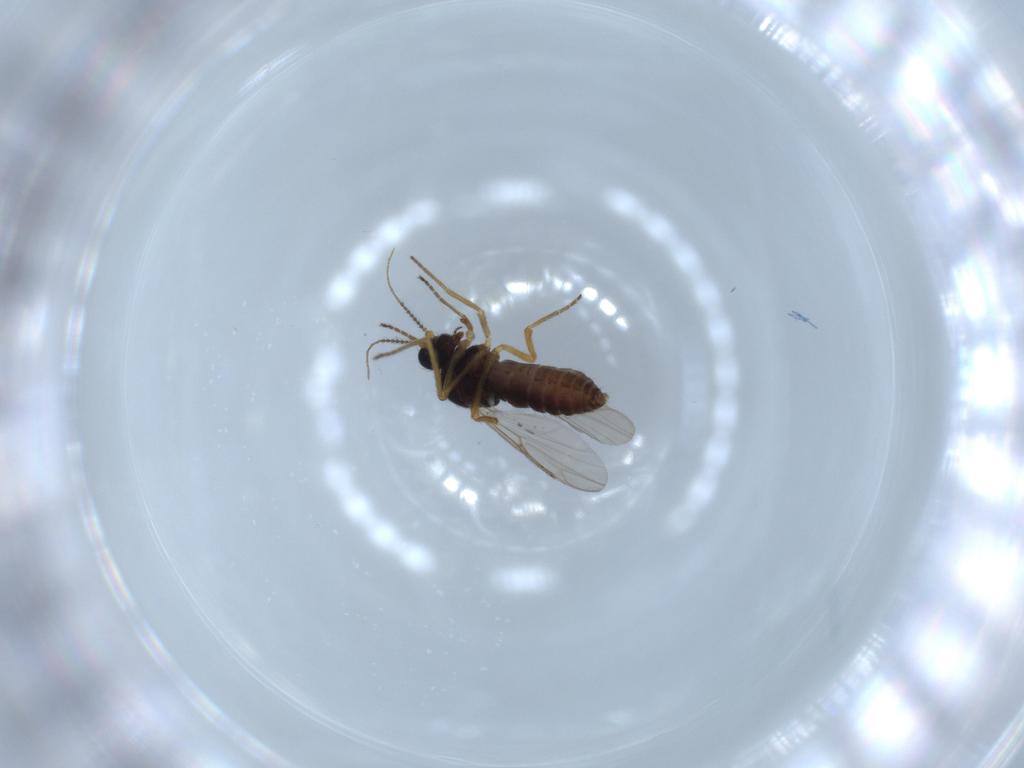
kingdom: Animalia
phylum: Arthropoda
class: Insecta
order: Diptera
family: Ceratopogonidae
